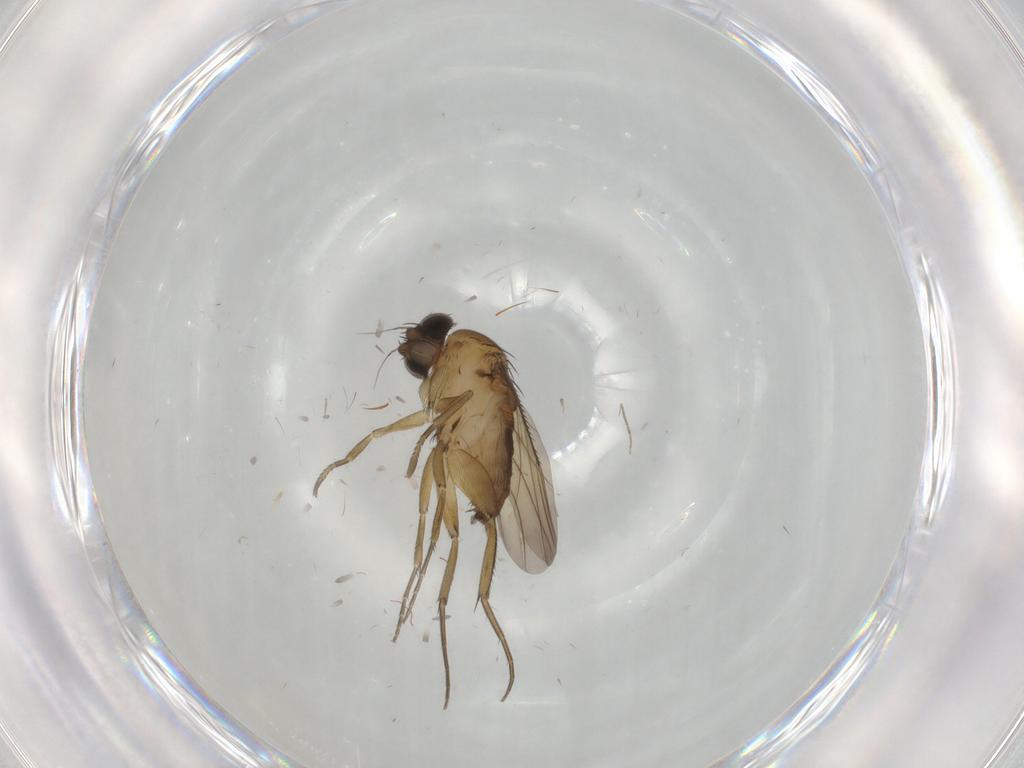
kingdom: Animalia
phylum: Arthropoda
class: Insecta
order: Diptera
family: Phoridae
